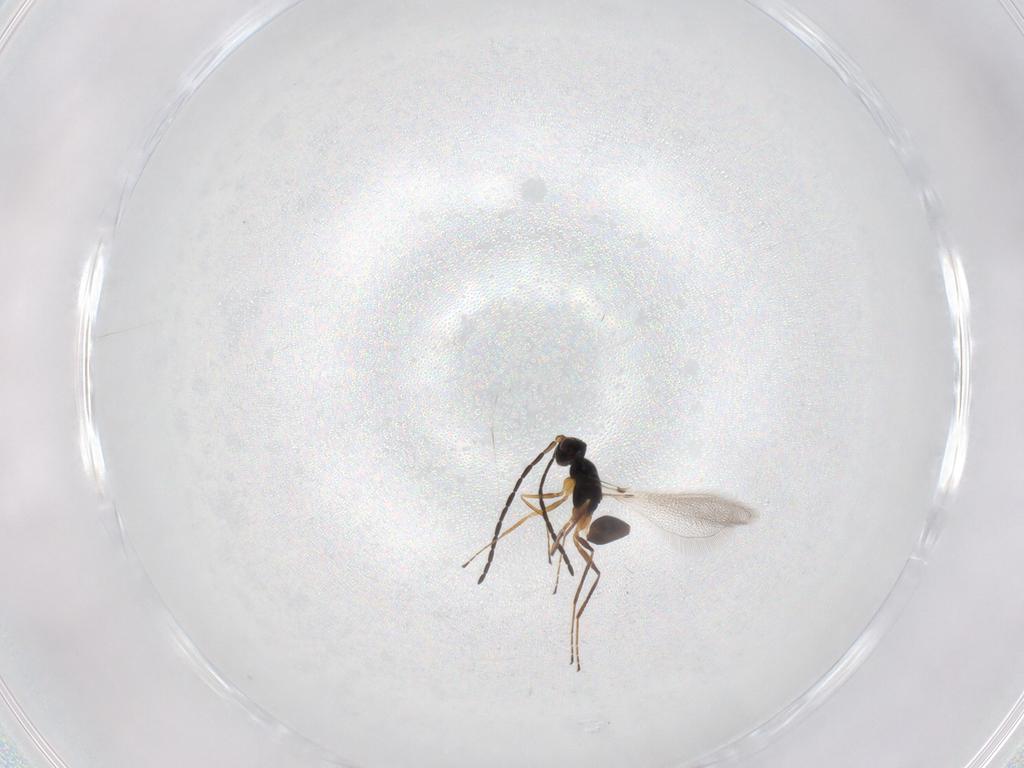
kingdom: Animalia
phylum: Arthropoda
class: Insecta
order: Hymenoptera
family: Mymaridae
